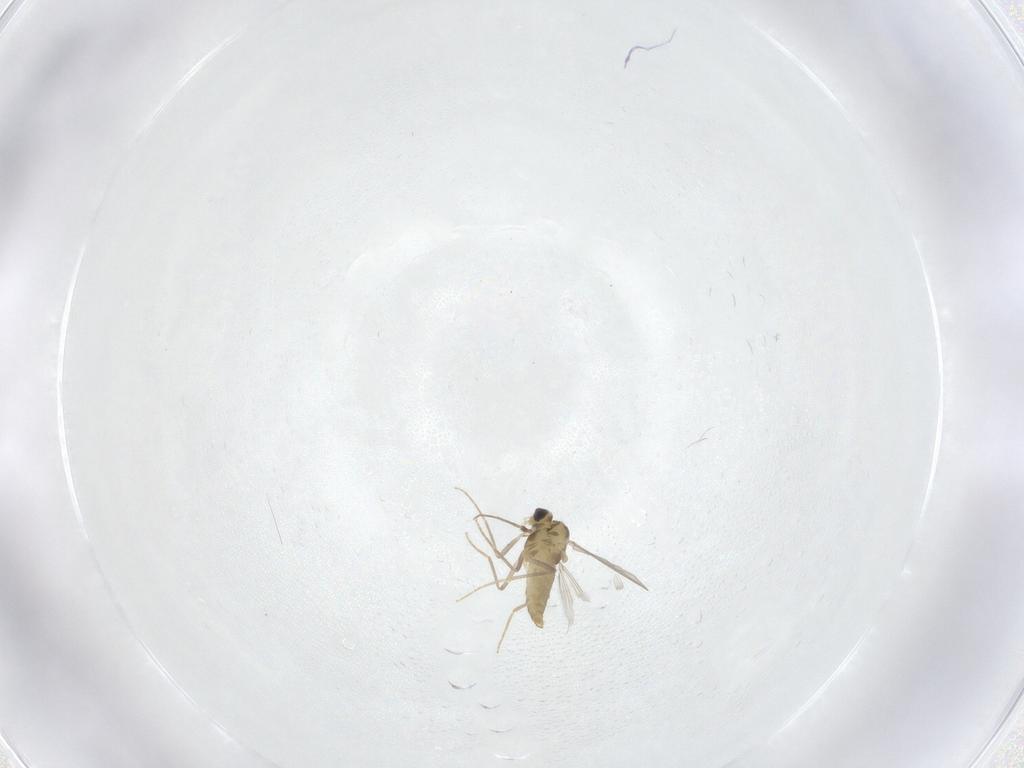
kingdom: Animalia
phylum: Arthropoda
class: Insecta
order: Diptera
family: Chironomidae
